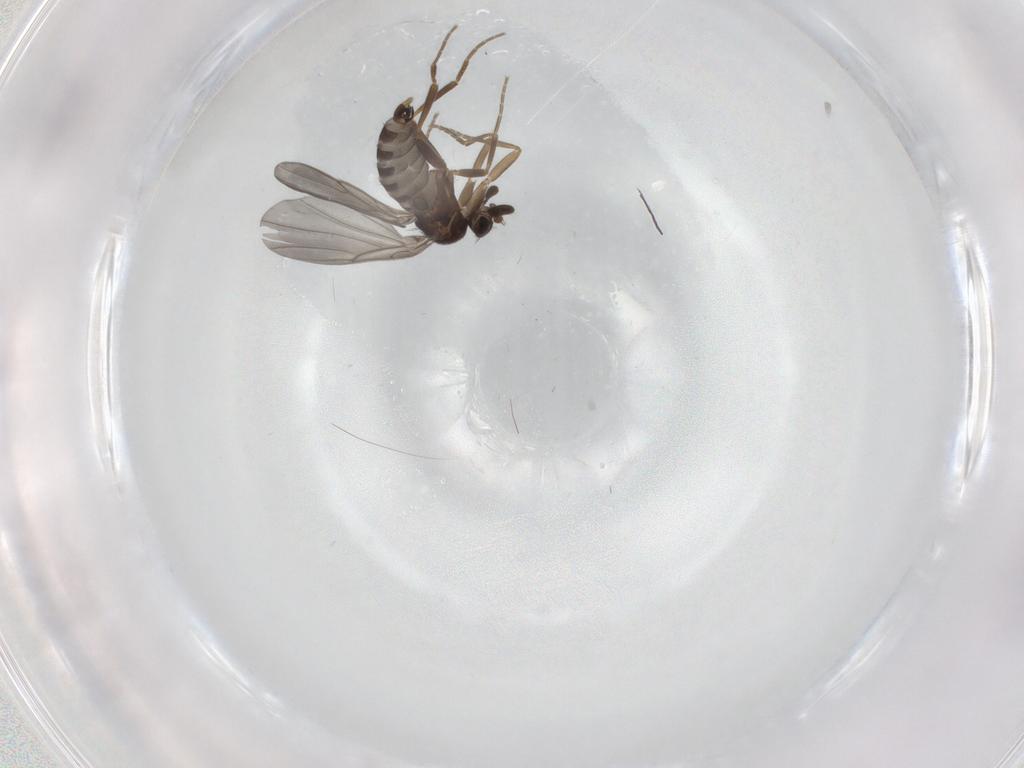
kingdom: Animalia
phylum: Arthropoda
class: Insecta
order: Diptera
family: Phoridae
